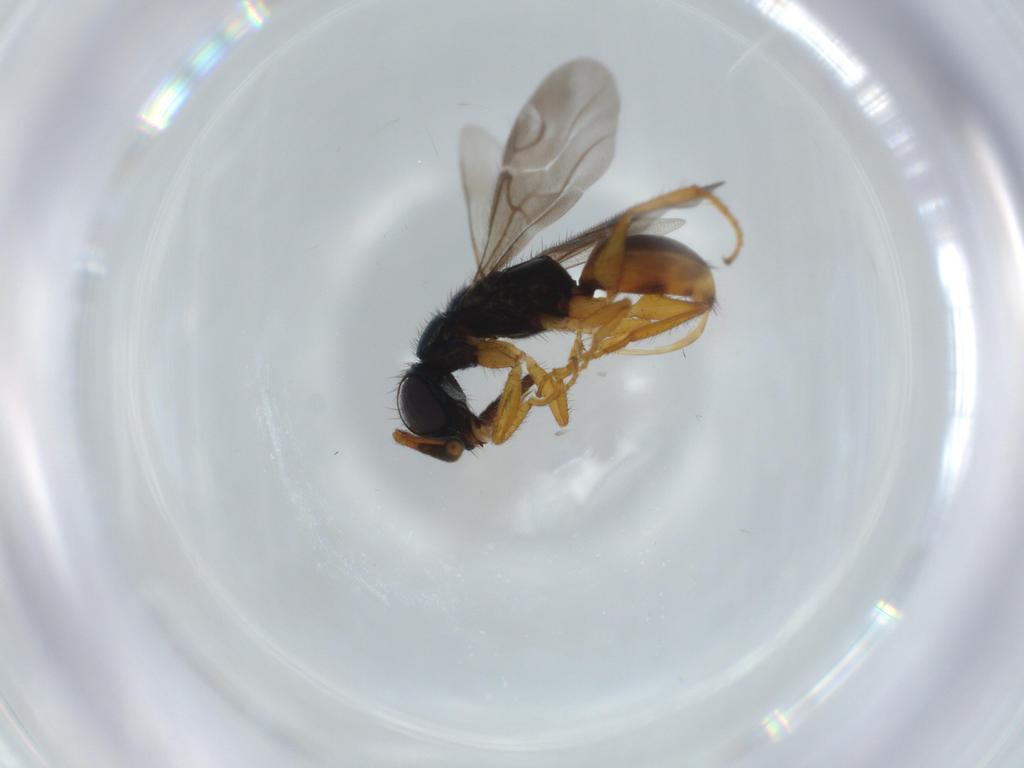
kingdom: Animalia
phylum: Arthropoda
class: Insecta
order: Hymenoptera
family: Chrysididae
